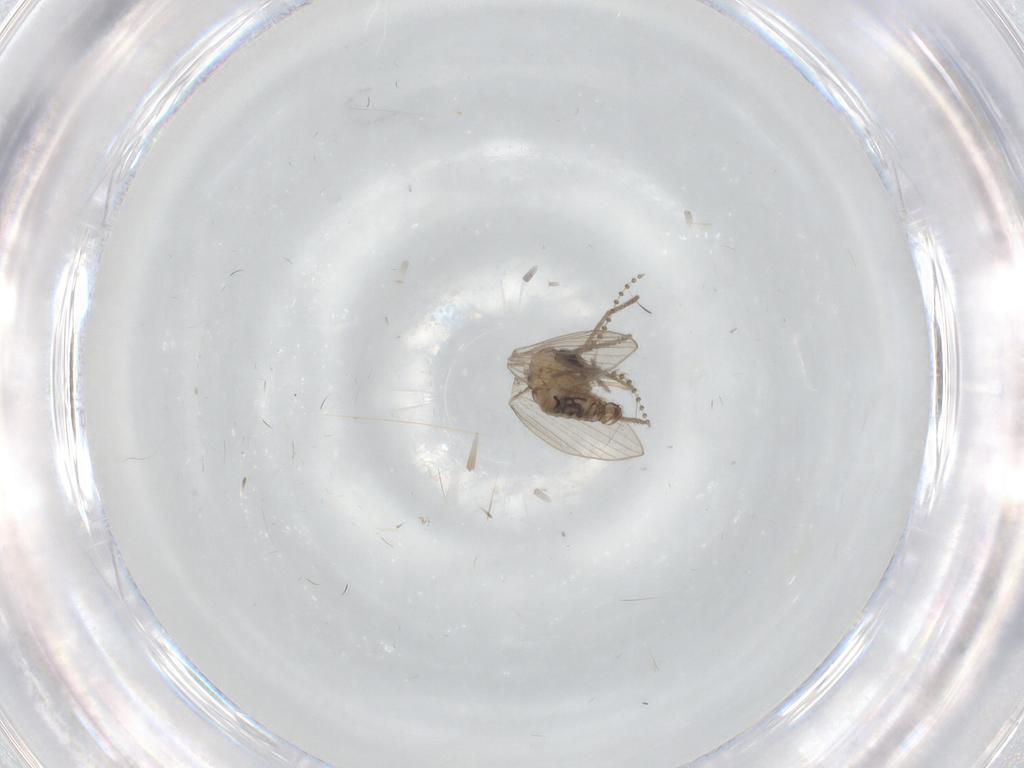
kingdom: Animalia
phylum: Arthropoda
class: Insecta
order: Diptera
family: Psychodidae
